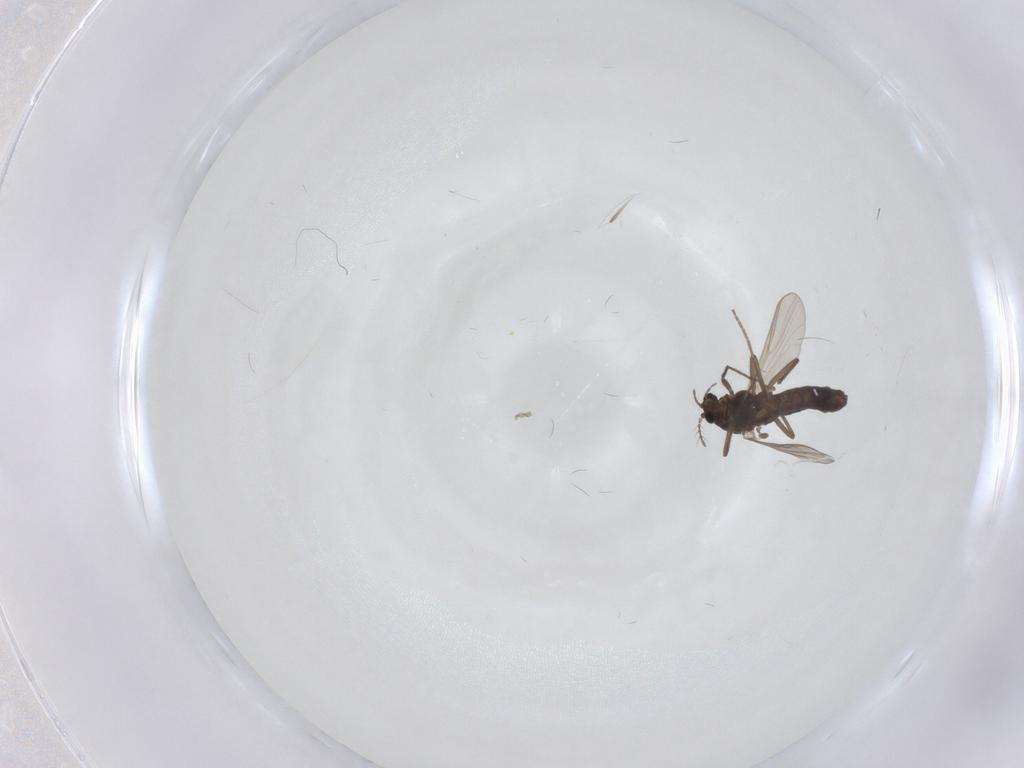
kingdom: Animalia
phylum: Arthropoda
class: Insecta
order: Diptera
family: Chironomidae
